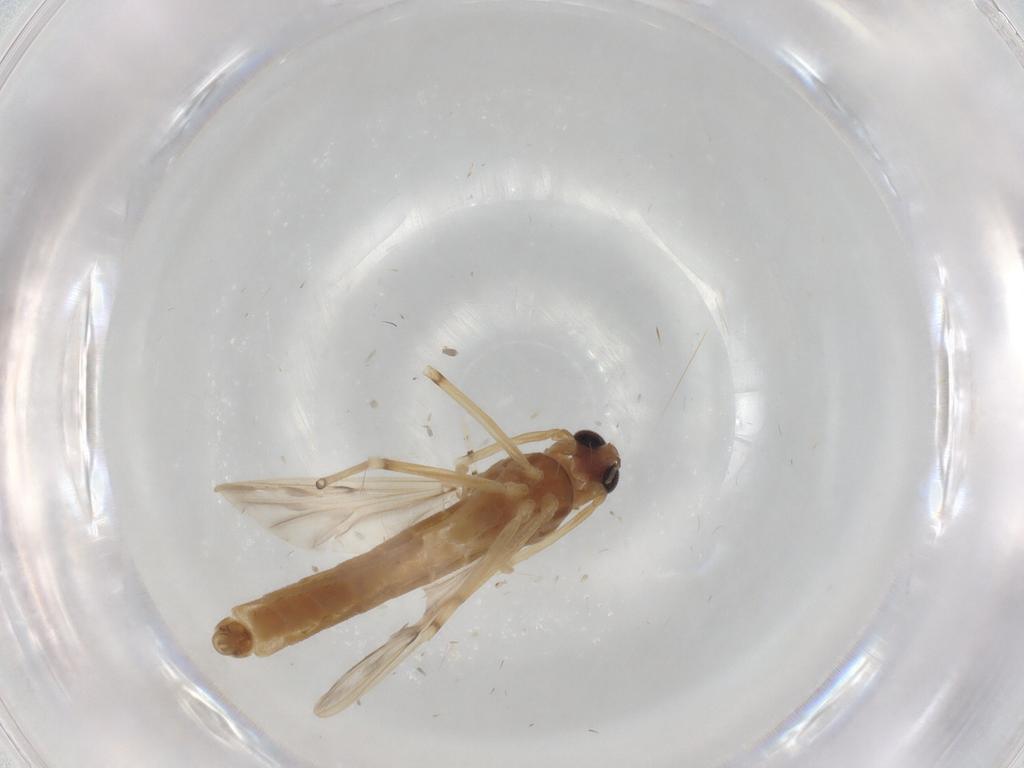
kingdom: Animalia
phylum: Arthropoda
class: Insecta
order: Diptera
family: Chironomidae
